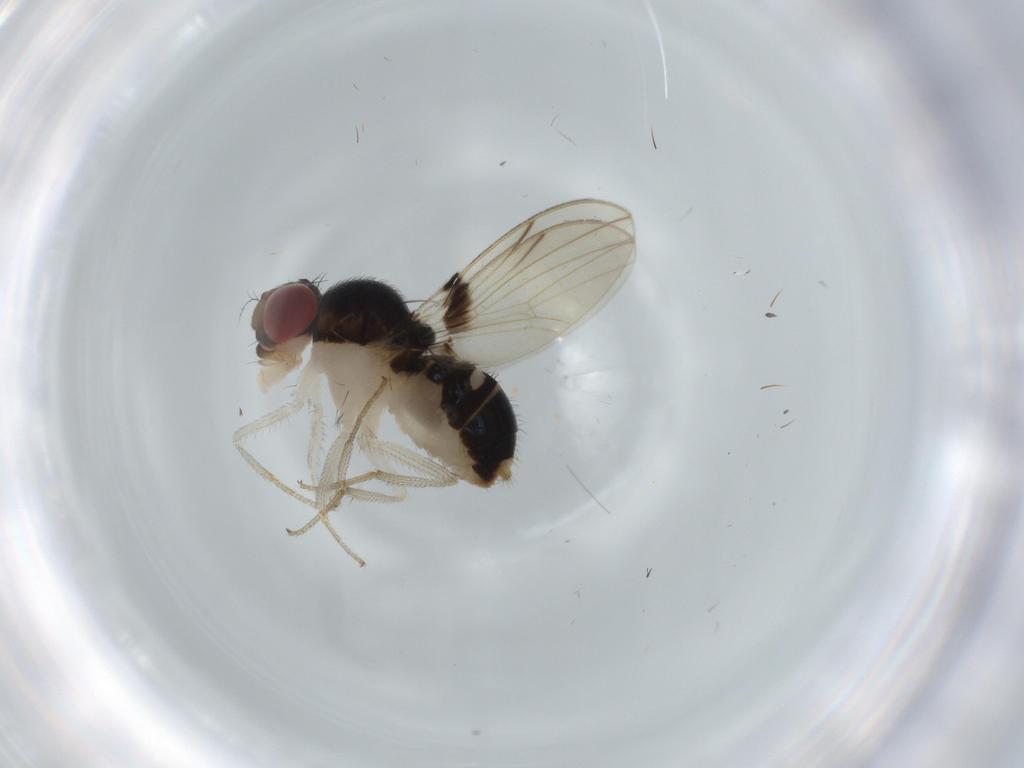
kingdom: Animalia
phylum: Arthropoda
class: Insecta
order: Diptera
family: Drosophilidae
